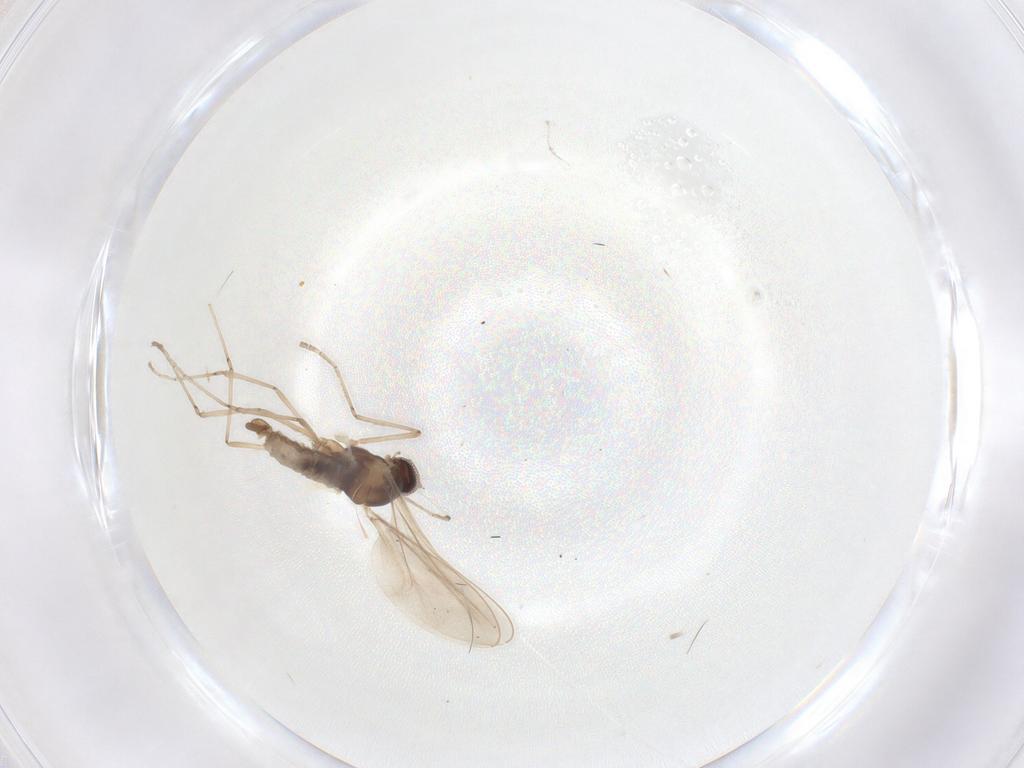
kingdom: Animalia
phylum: Arthropoda
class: Insecta
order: Diptera
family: Cecidomyiidae
